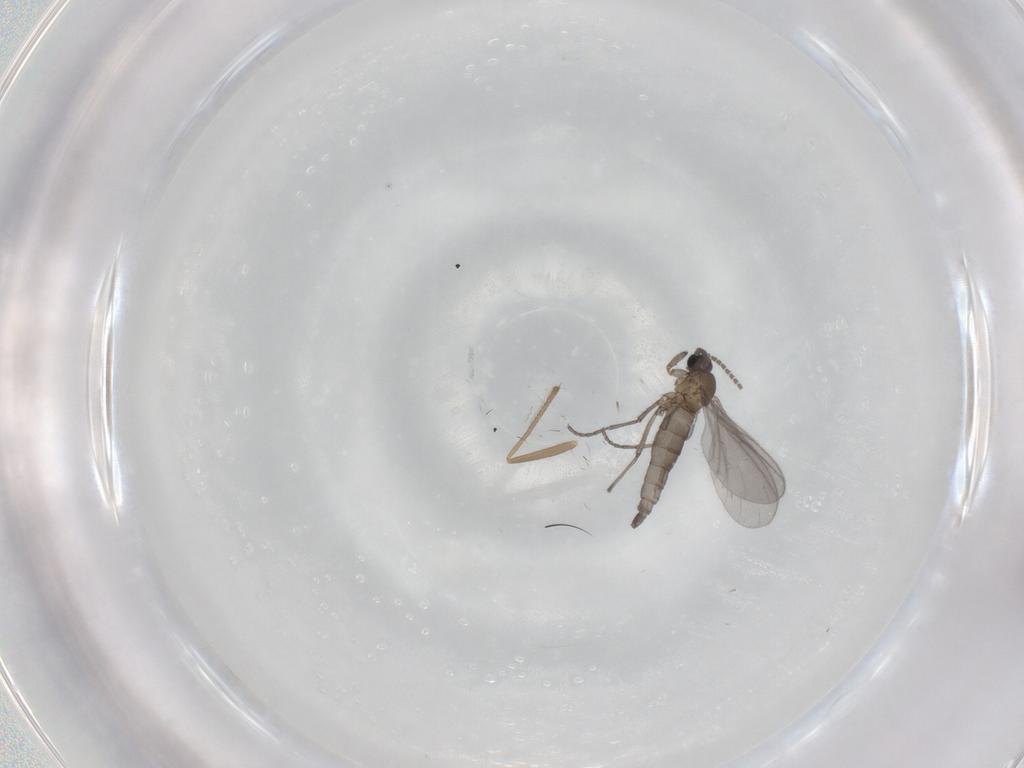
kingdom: Animalia
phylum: Arthropoda
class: Insecta
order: Diptera
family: Sciaridae
